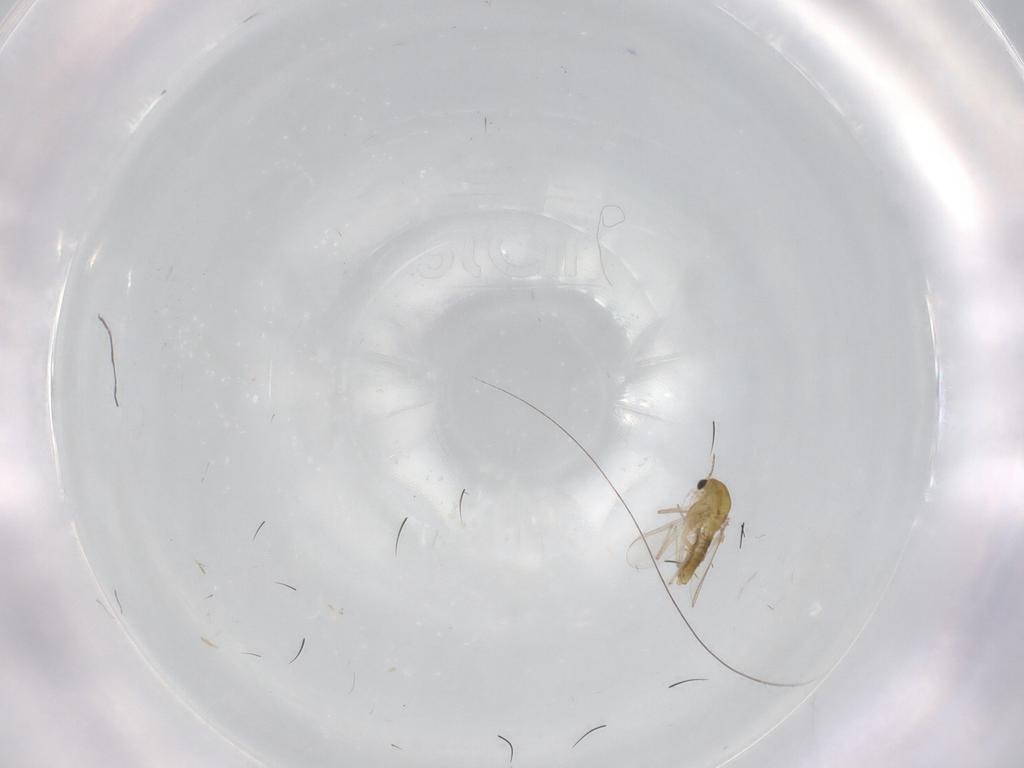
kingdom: Animalia
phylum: Arthropoda
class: Insecta
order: Diptera
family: Chironomidae
